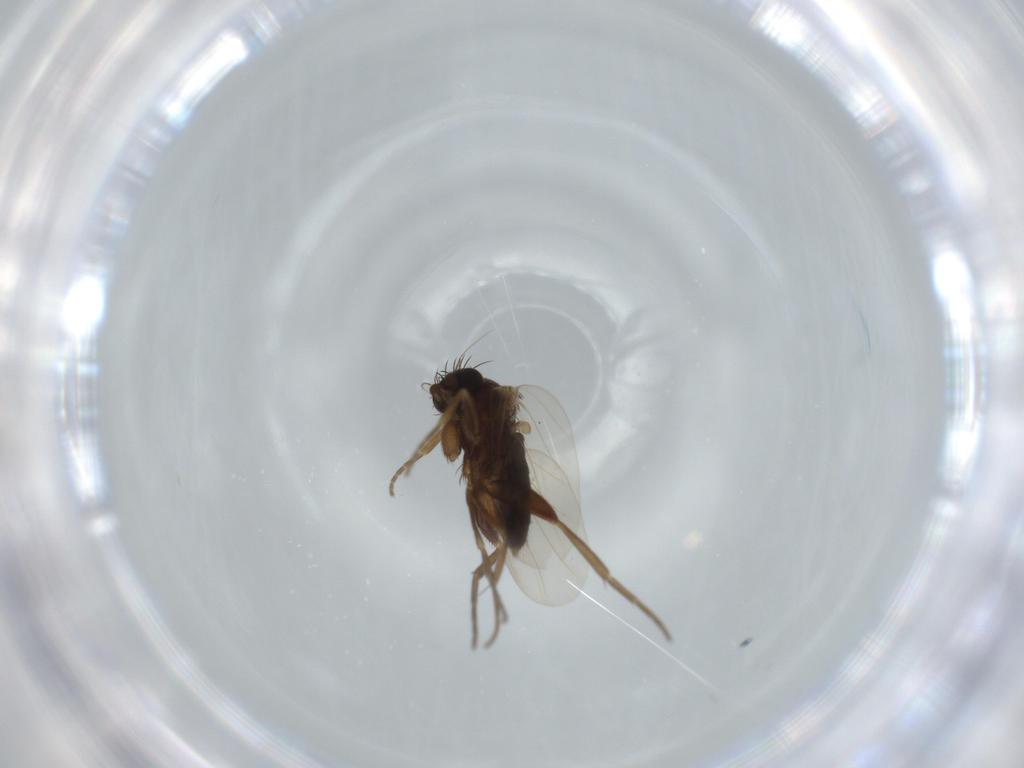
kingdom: Animalia
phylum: Arthropoda
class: Insecta
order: Diptera
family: Phoridae
